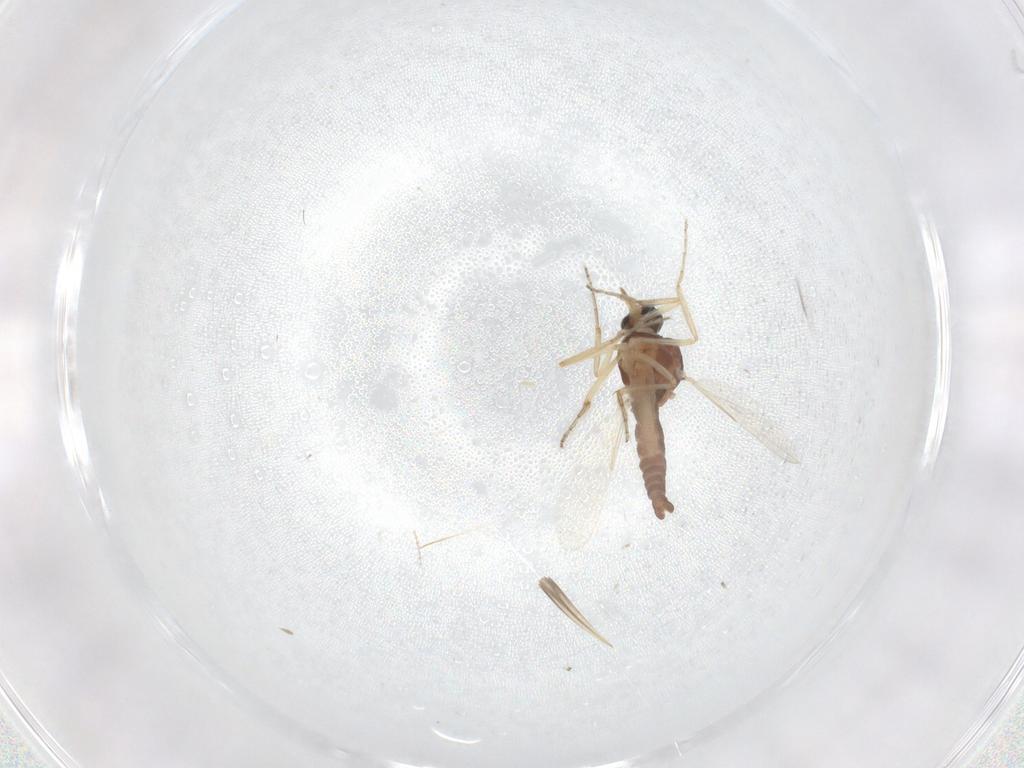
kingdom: Animalia
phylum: Arthropoda
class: Insecta
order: Diptera
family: Ceratopogonidae
